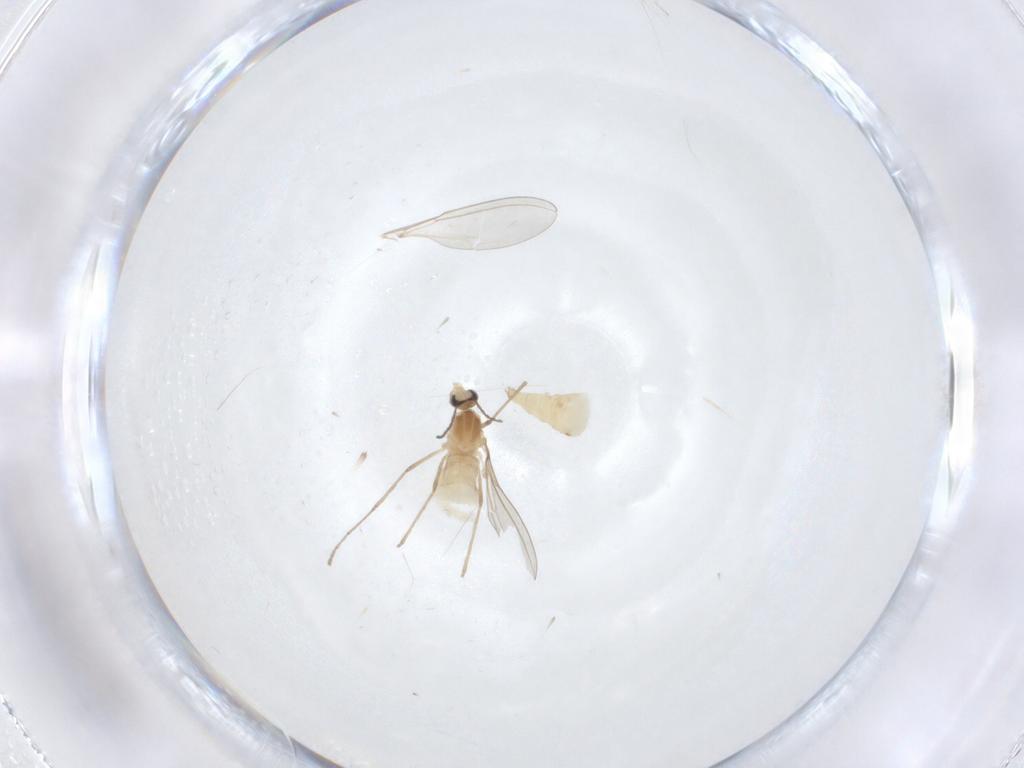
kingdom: Animalia
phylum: Arthropoda
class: Insecta
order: Diptera
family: Cecidomyiidae
